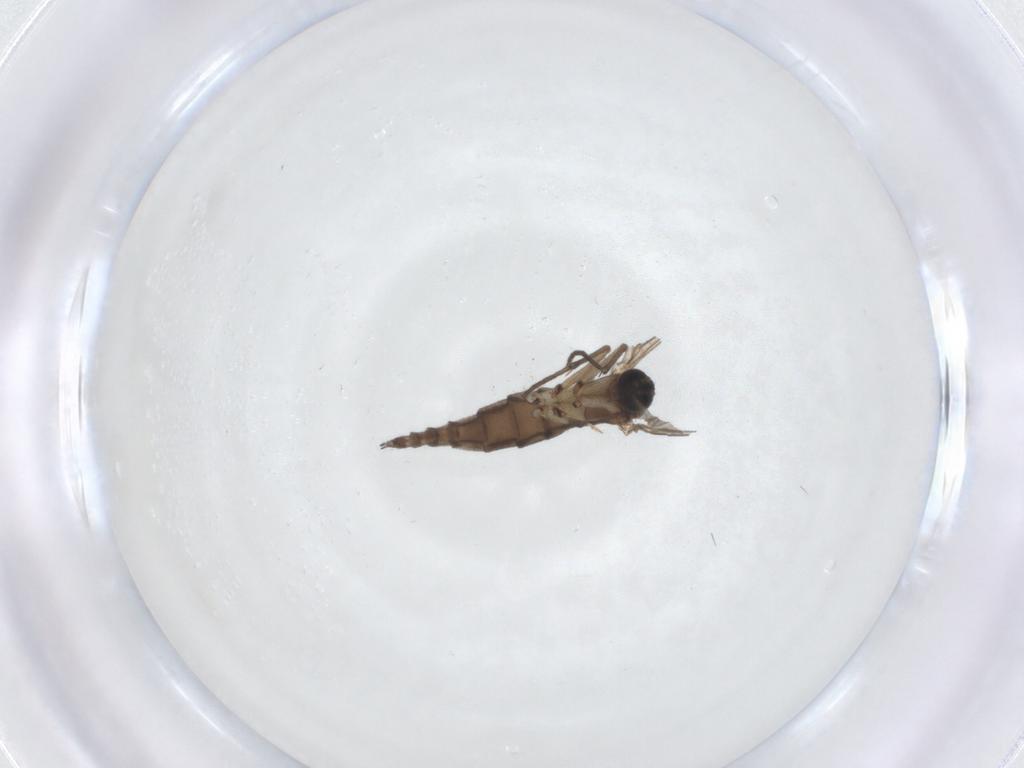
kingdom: Animalia
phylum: Arthropoda
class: Insecta
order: Diptera
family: Sciaridae
